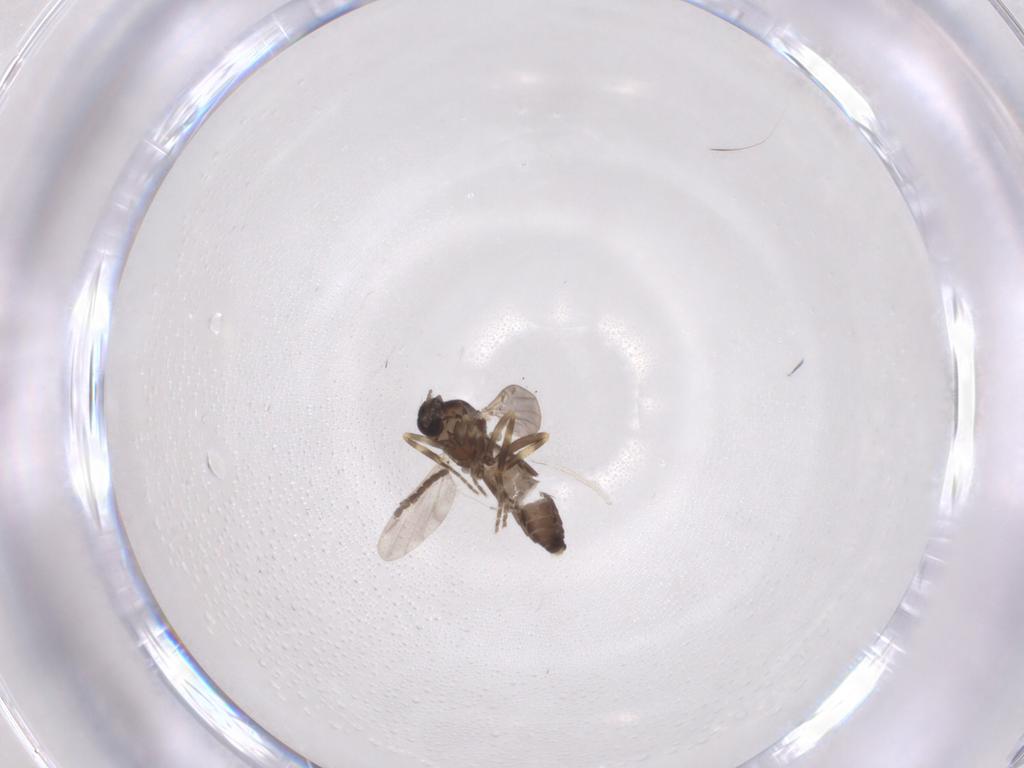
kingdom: Animalia
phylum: Arthropoda
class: Insecta
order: Diptera
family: Ceratopogonidae
